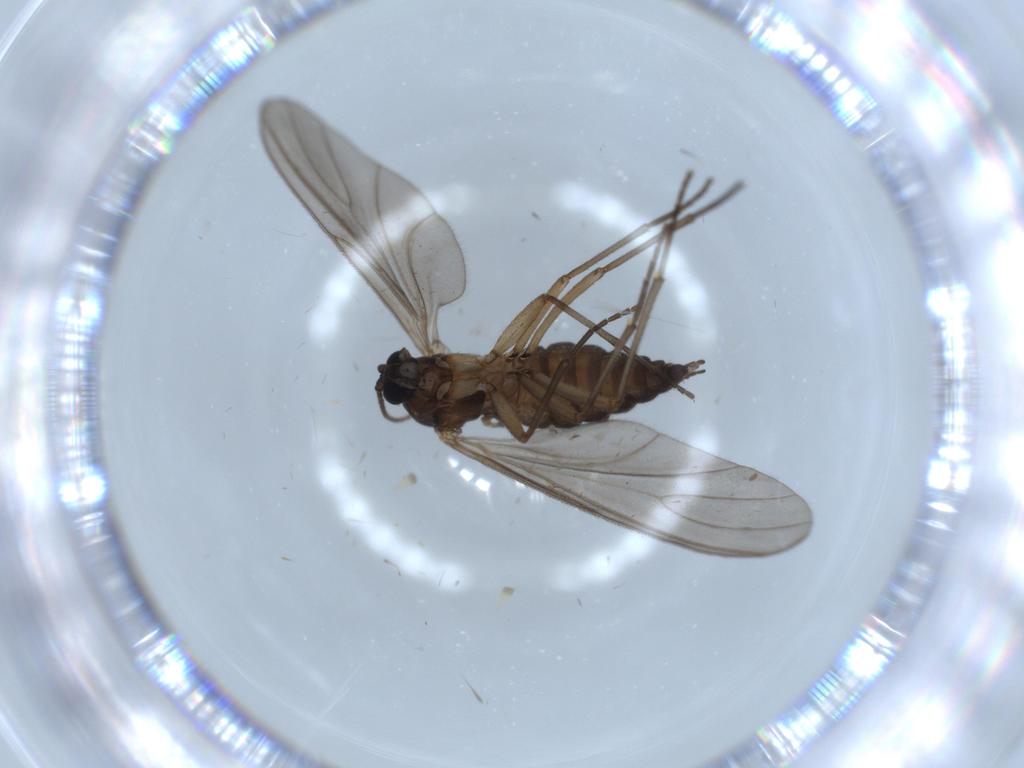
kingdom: Animalia
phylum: Arthropoda
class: Insecta
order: Diptera
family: Sciaridae
